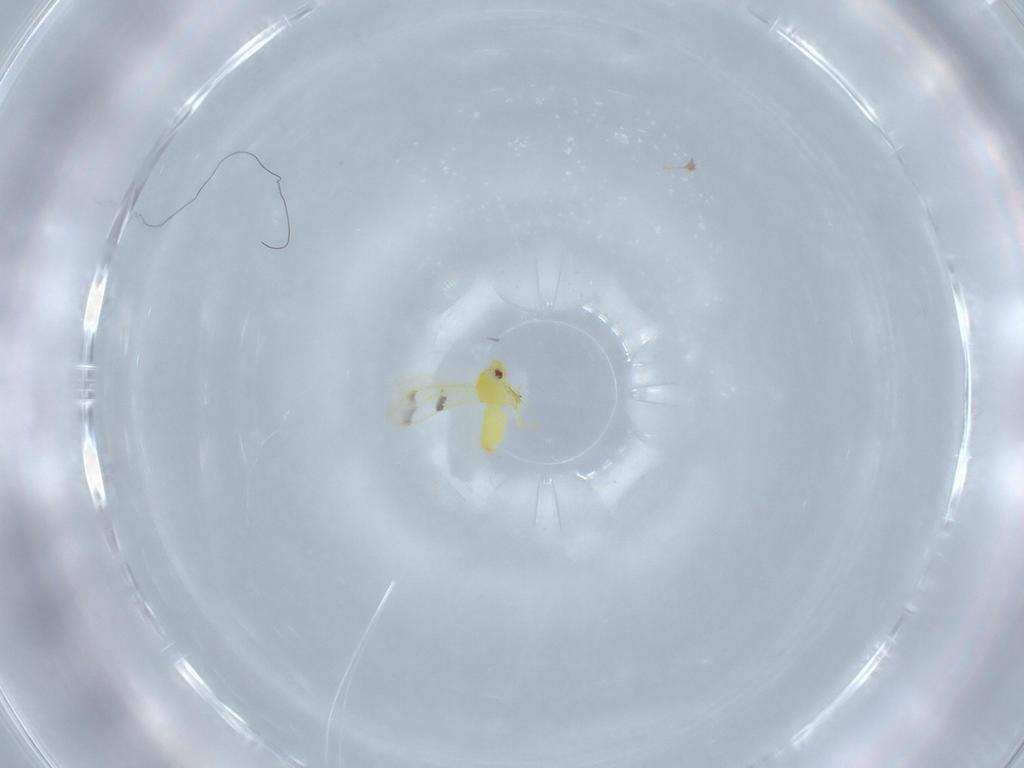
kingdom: Animalia
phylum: Arthropoda
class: Insecta
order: Hemiptera
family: Aleyrodidae
